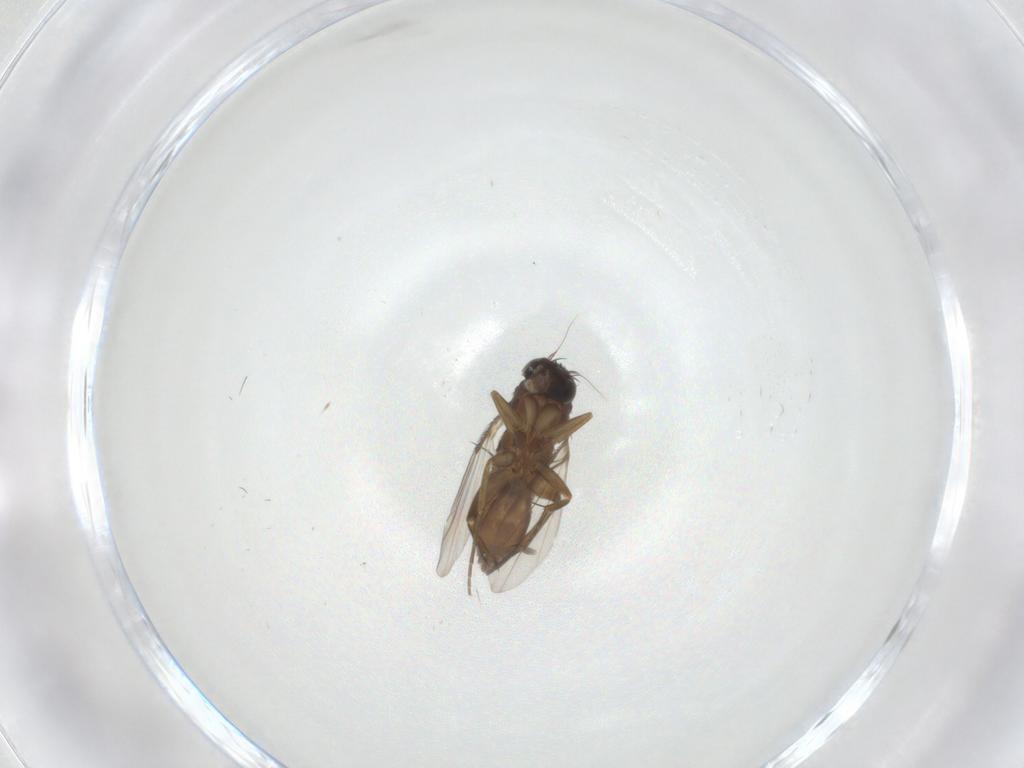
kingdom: Animalia
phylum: Arthropoda
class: Insecta
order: Diptera
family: Phoridae
